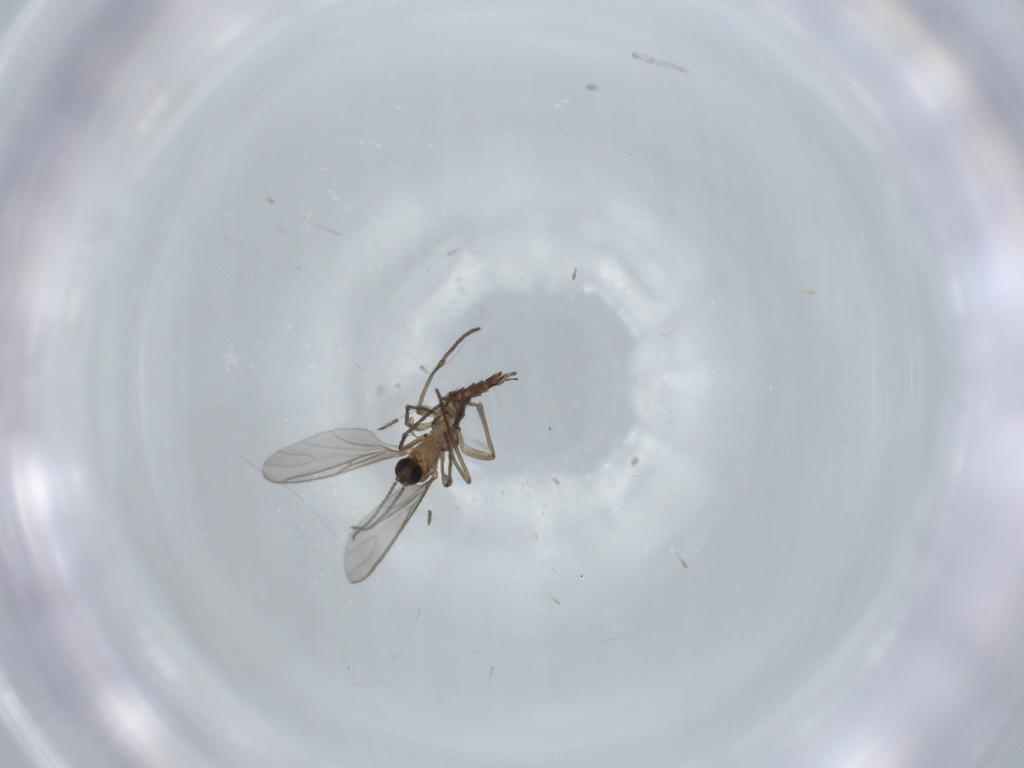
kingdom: Animalia
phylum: Arthropoda
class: Insecta
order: Diptera
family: Sciaridae
